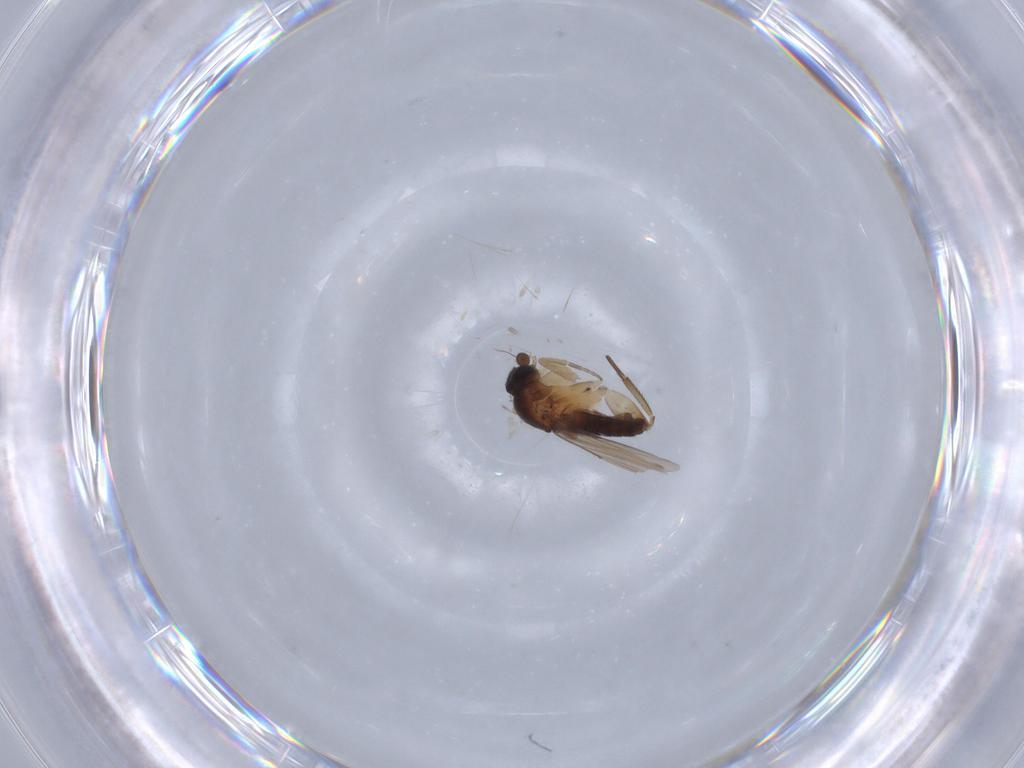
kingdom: Animalia
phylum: Arthropoda
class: Insecta
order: Diptera
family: Phoridae
